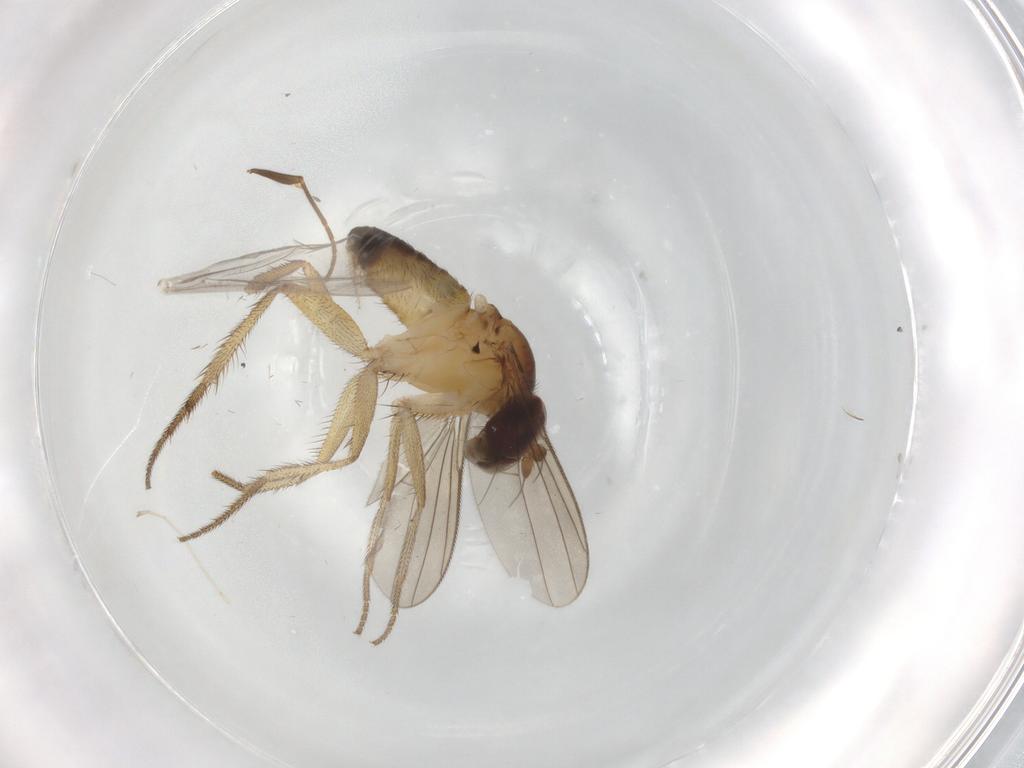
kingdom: Animalia
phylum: Arthropoda
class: Insecta
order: Diptera
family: Dolichopodidae
